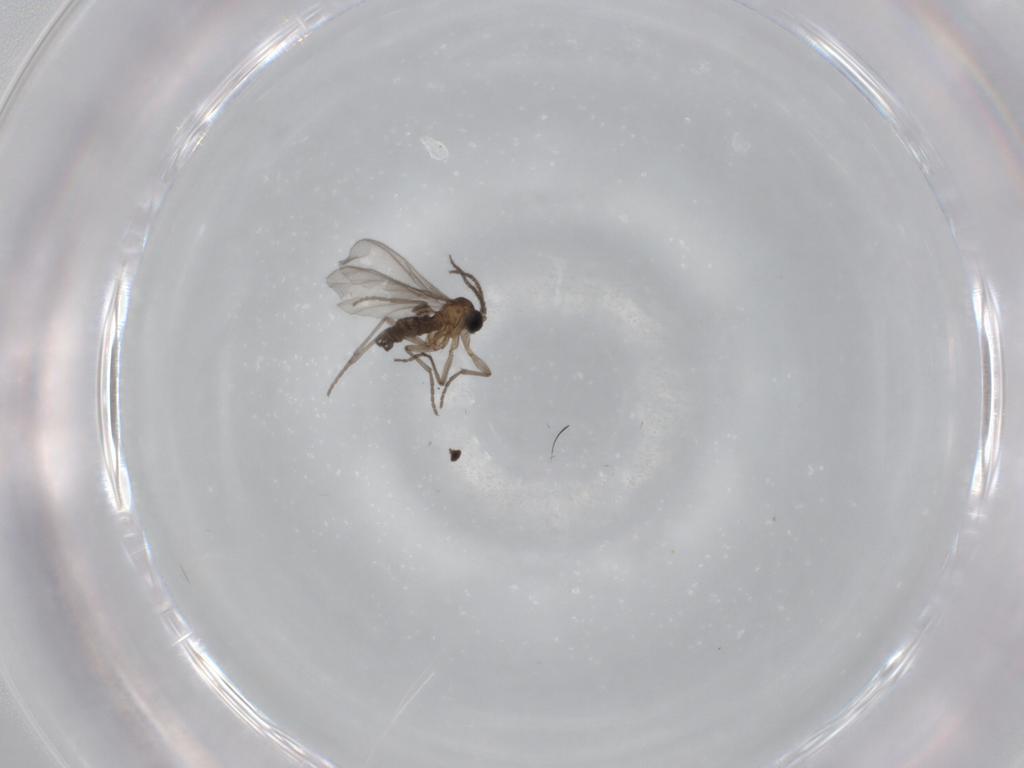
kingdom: Animalia
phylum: Arthropoda
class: Insecta
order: Diptera
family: Sciaridae
